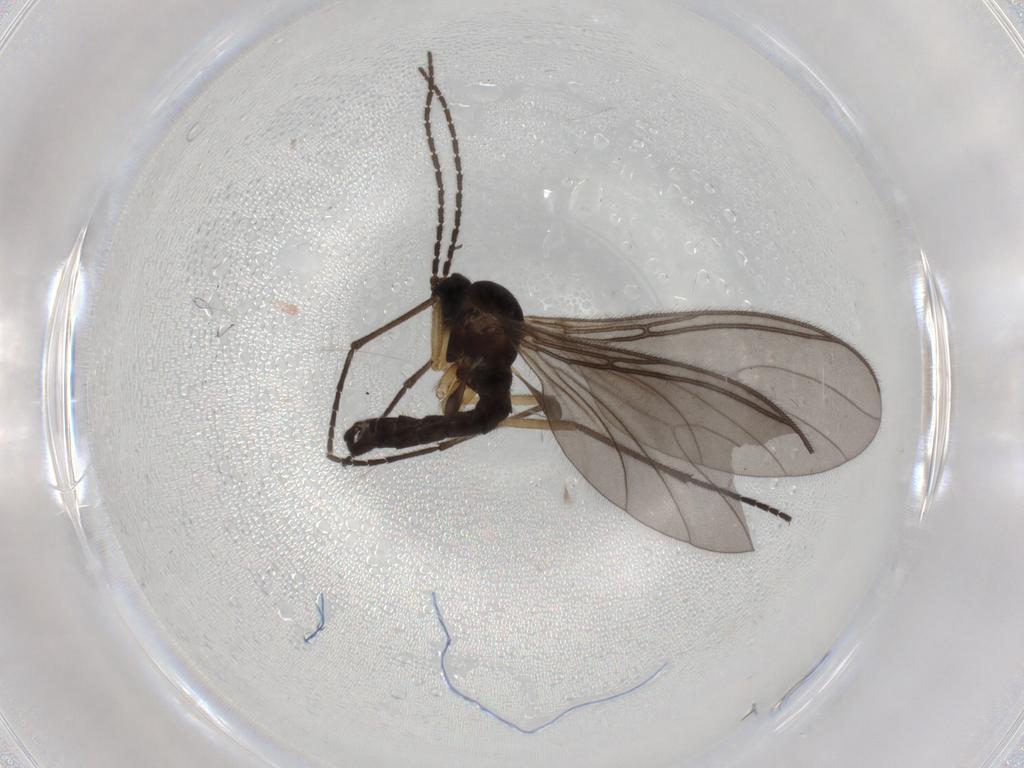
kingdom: Animalia
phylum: Arthropoda
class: Insecta
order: Diptera
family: Sciaridae
